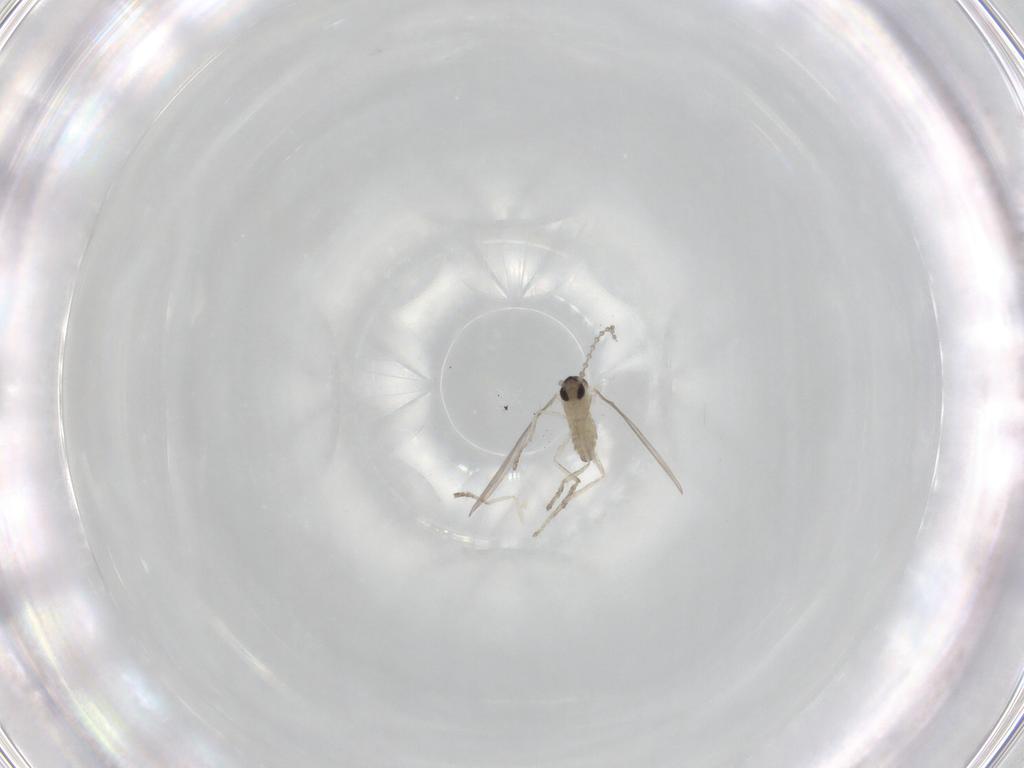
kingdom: Animalia
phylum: Arthropoda
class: Insecta
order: Diptera
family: Cecidomyiidae
